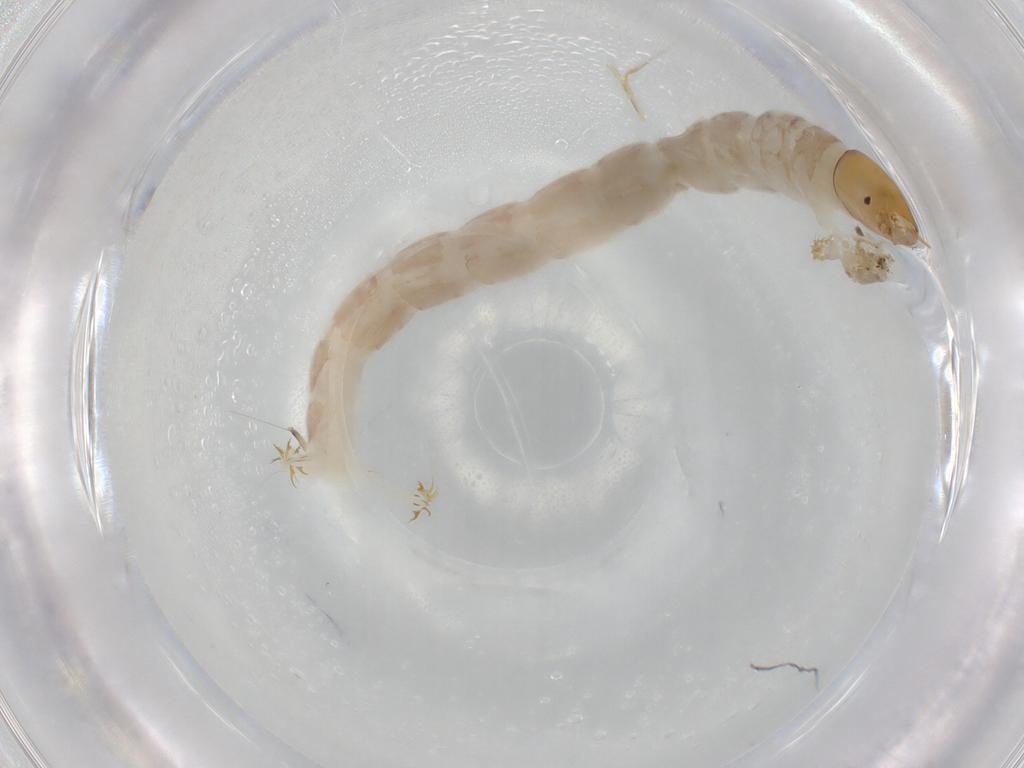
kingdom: Animalia
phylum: Arthropoda
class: Insecta
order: Diptera
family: Chironomidae
